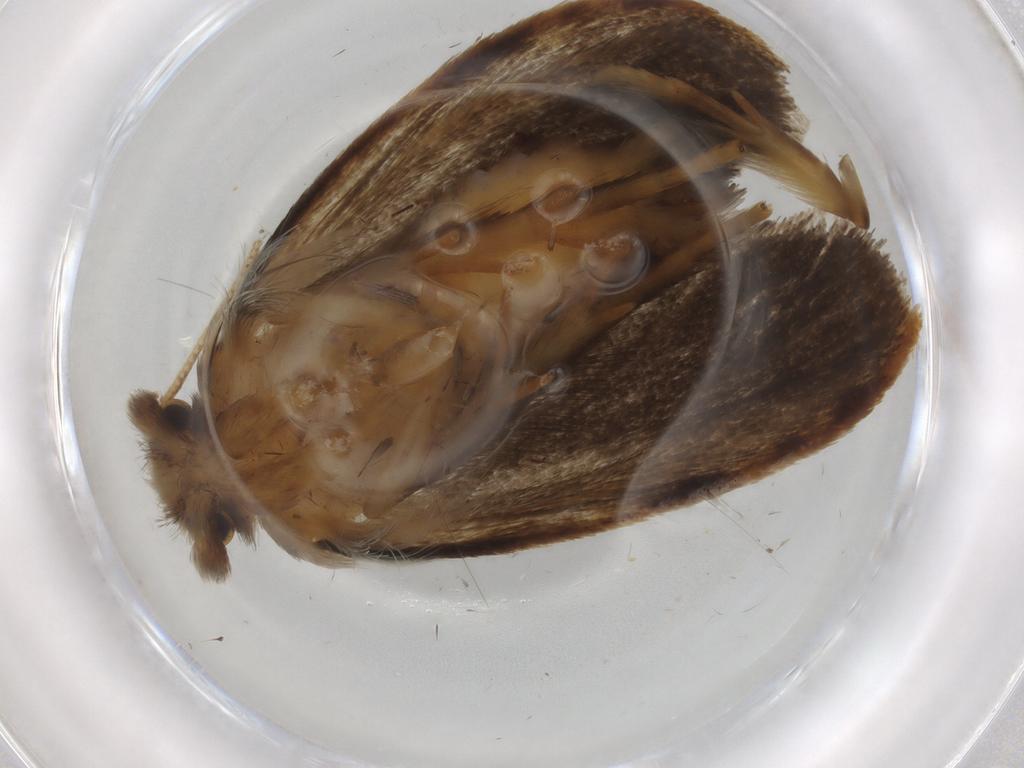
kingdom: Animalia
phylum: Arthropoda
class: Insecta
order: Lepidoptera
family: Tineidae
